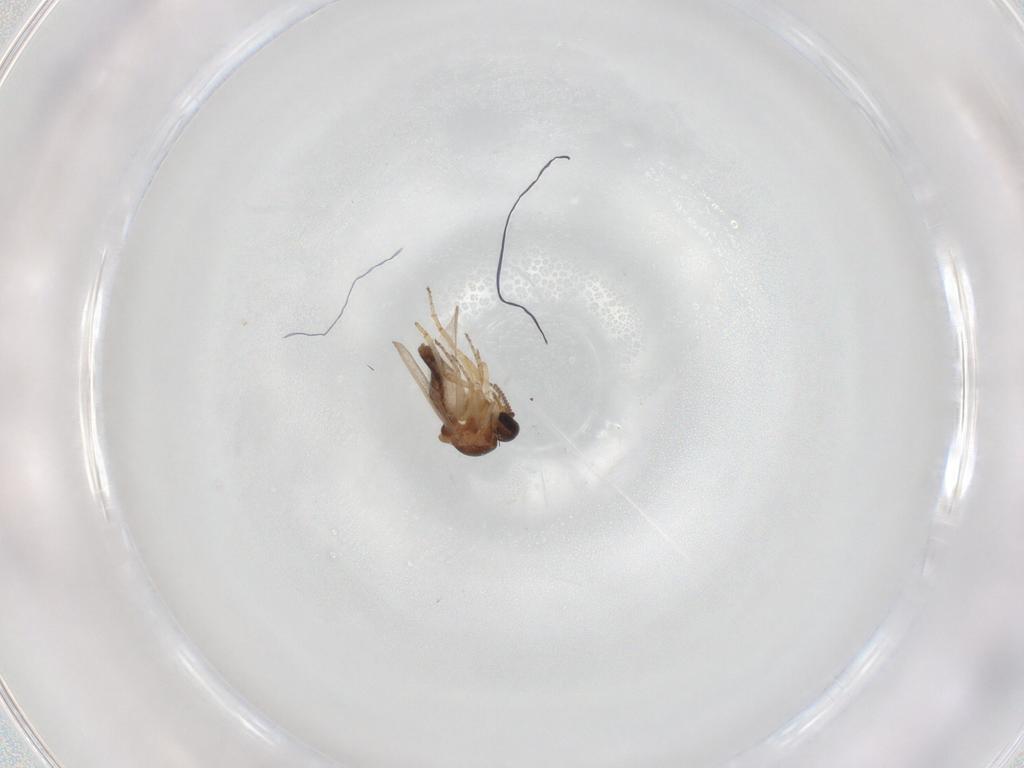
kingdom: Animalia
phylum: Arthropoda
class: Insecta
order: Diptera
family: Ceratopogonidae
